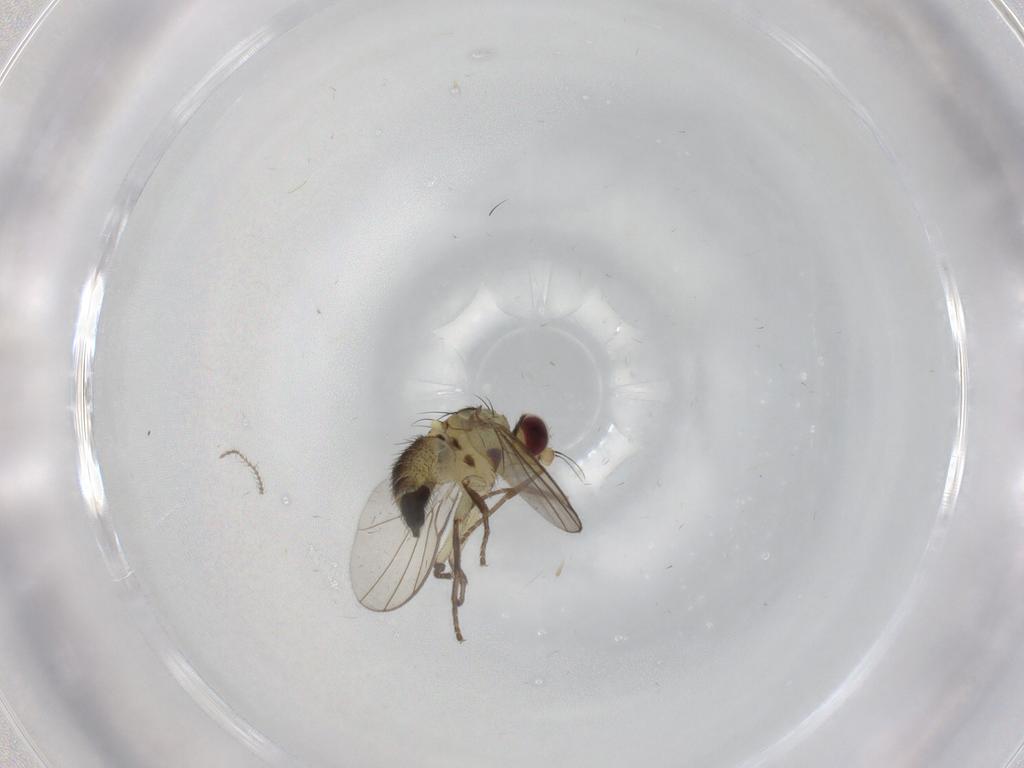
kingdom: Animalia
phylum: Arthropoda
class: Insecta
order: Diptera
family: Agromyzidae
